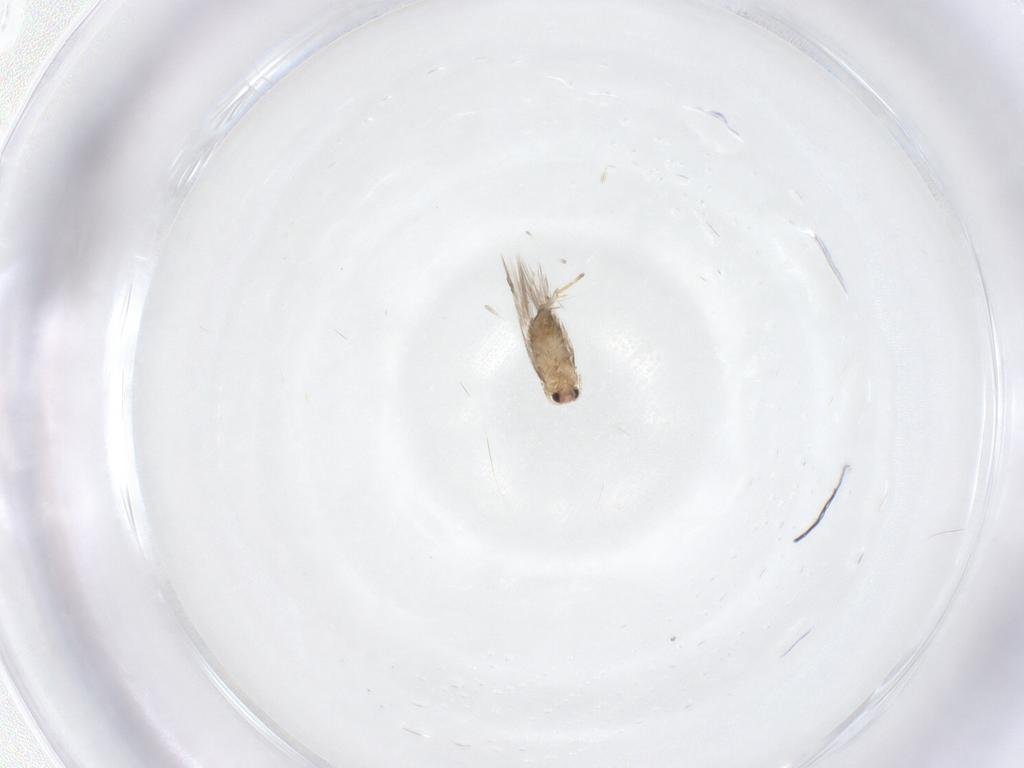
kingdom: Animalia
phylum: Arthropoda
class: Insecta
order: Lepidoptera
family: Nepticulidae
